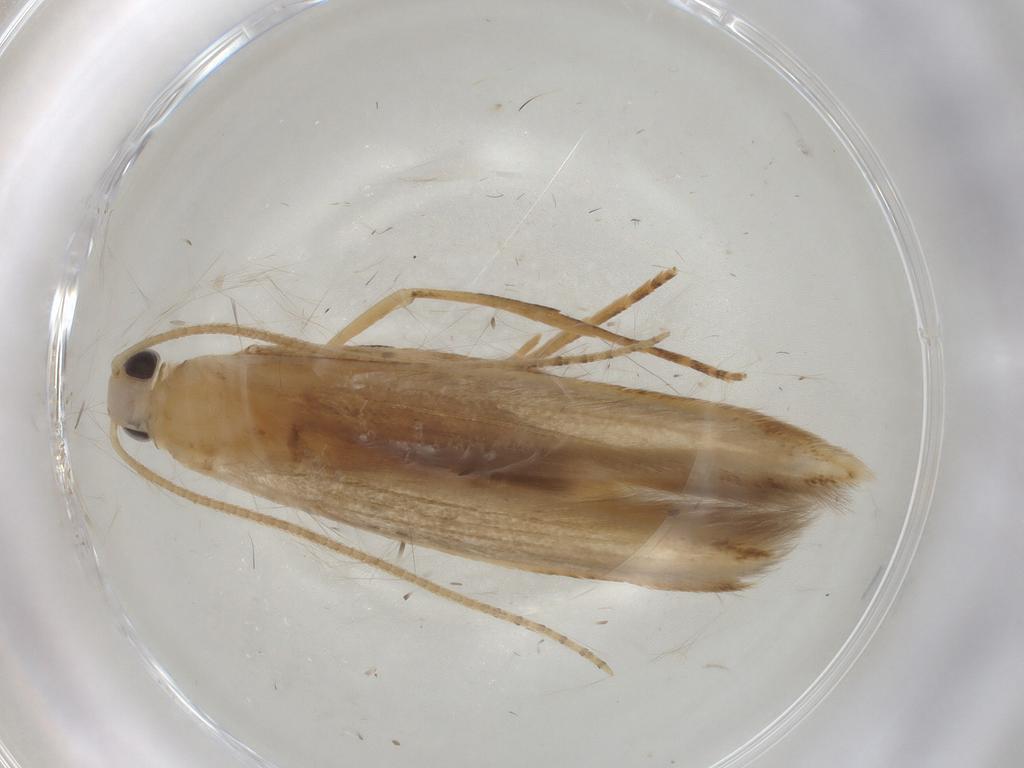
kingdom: Animalia
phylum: Arthropoda
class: Insecta
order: Lepidoptera
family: Batrachedridae
